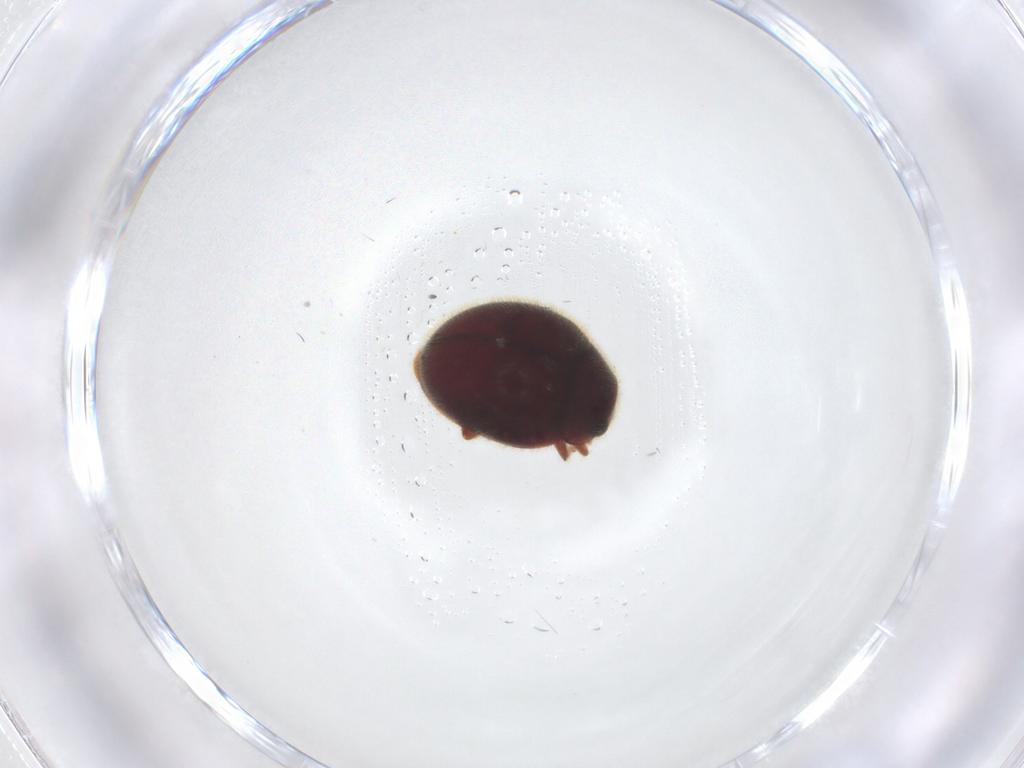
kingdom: Animalia
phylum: Arthropoda
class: Insecta
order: Coleoptera
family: Coccinellidae
